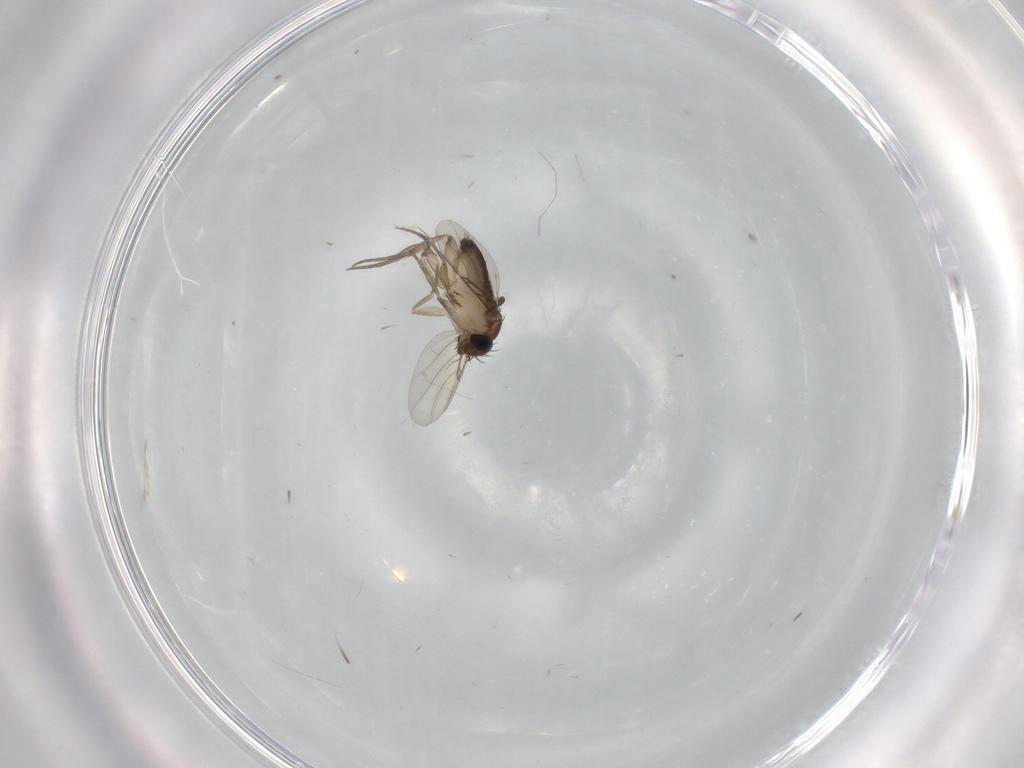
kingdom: Animalia
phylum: Arthropoda
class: Insecta
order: Diptera
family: Phoridae
